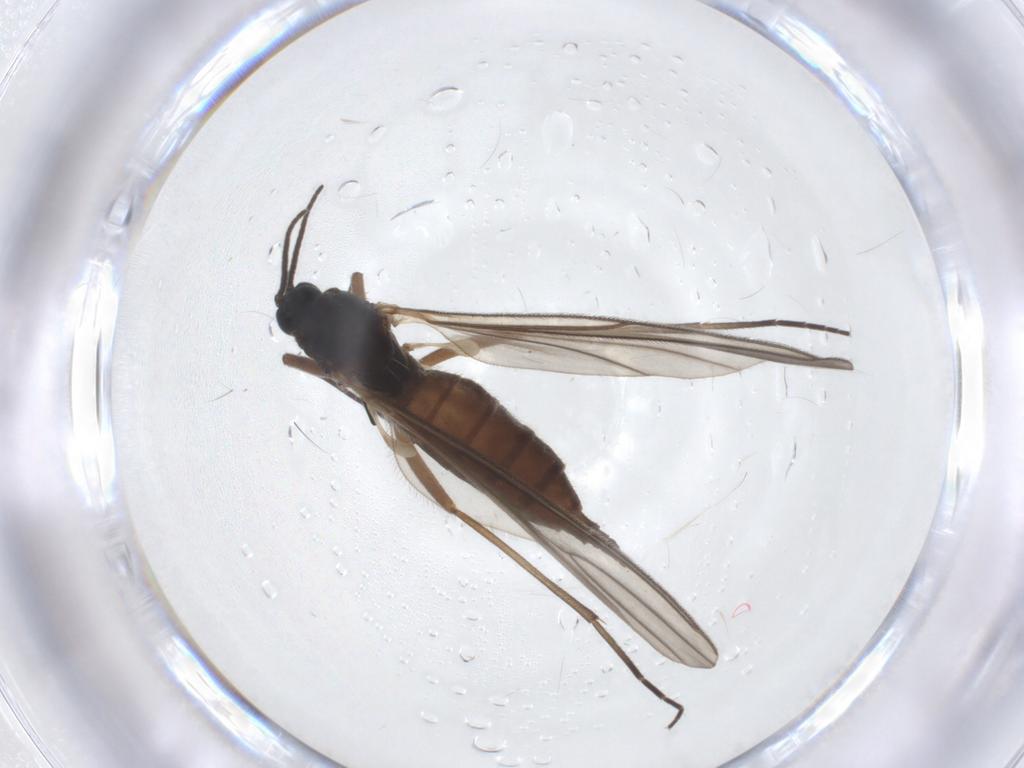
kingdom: Animalia
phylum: Arthropoda
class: Insecta
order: Diptera
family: Sciaridae
